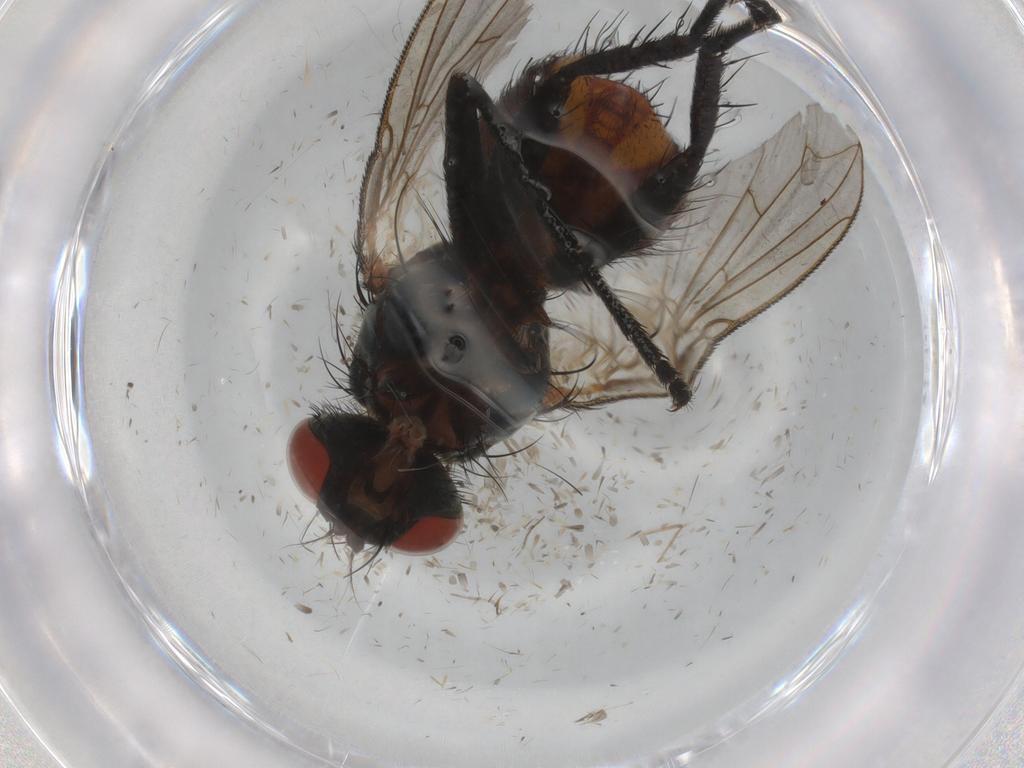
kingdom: Animalia
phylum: Arthropoda
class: Insecta
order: Diptera
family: Sarcophagidae
